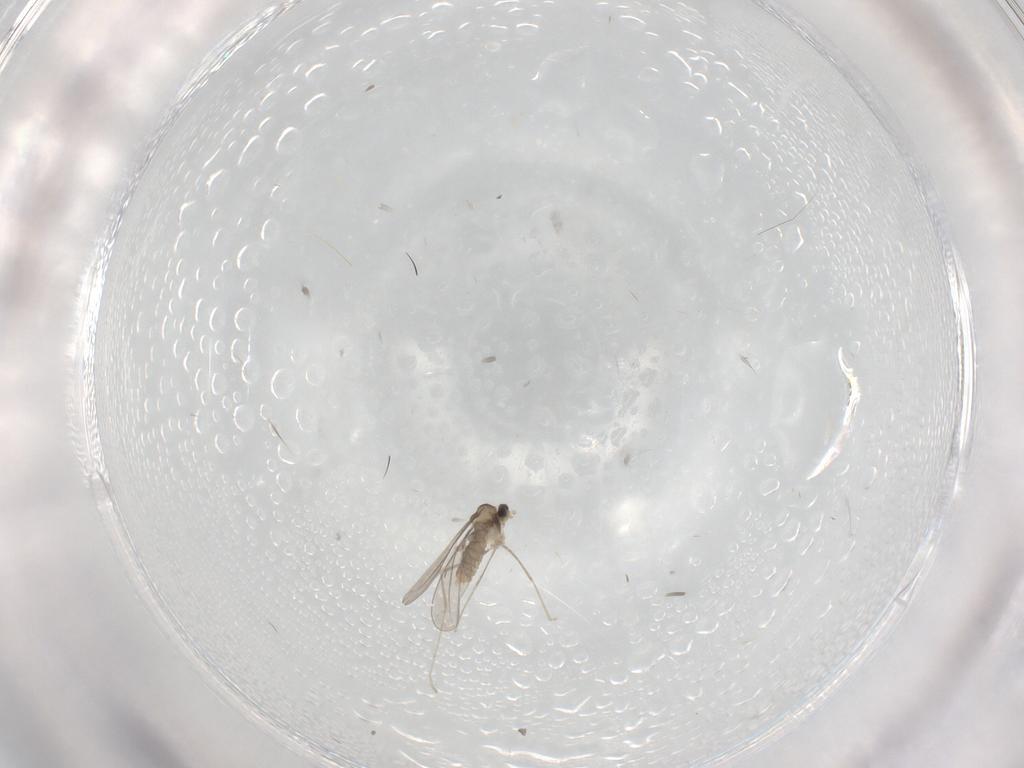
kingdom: Animalia
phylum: Arthropoda
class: Insecta
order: Diptera
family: Cecidomyiidae
